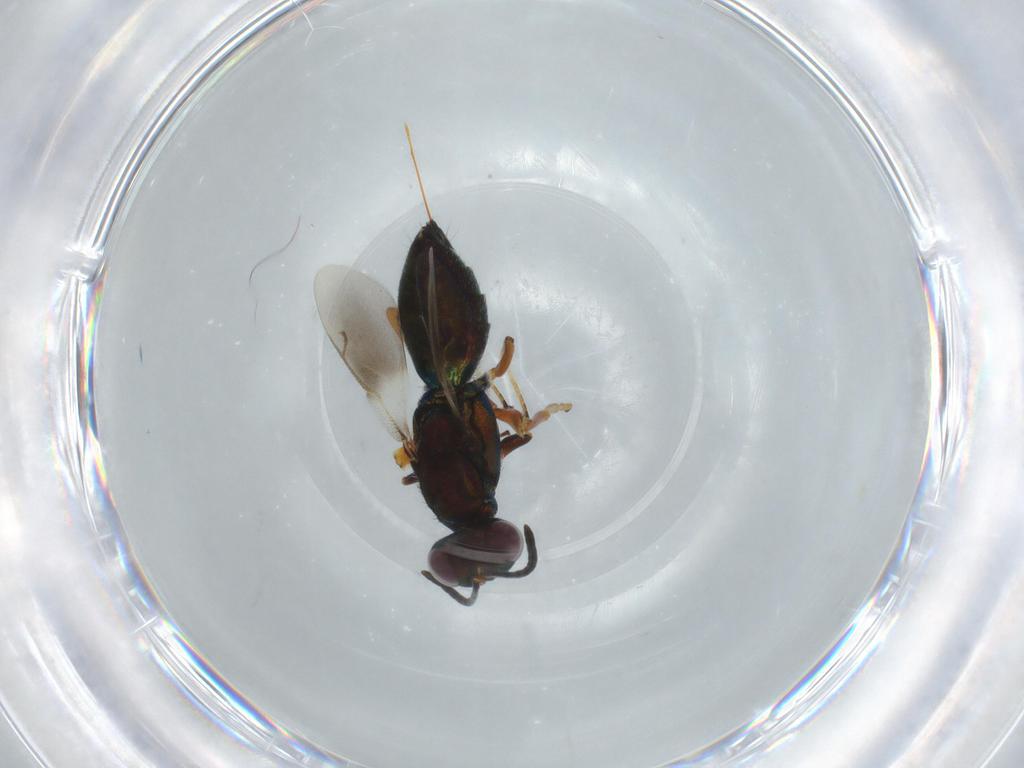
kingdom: Animalia
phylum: Arthropoda
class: Insecta
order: Hymenoptera
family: Eupelmidae
